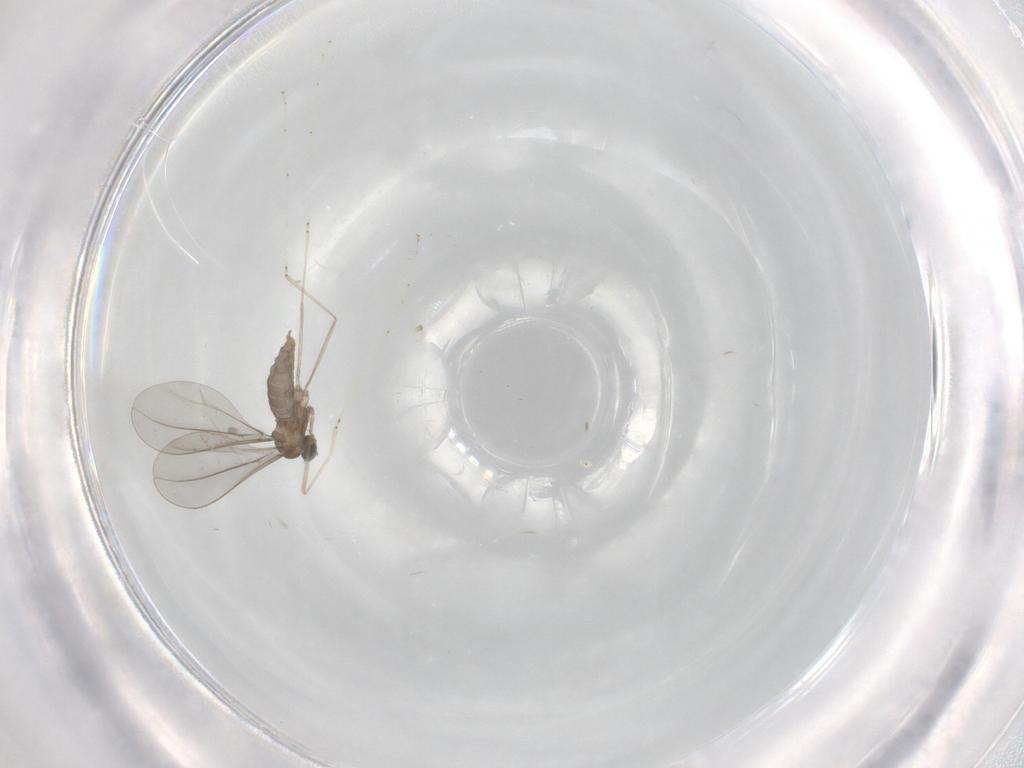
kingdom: Animalia
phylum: Arthropoda
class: Insecta
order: Diptera
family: Cecidomyiidae
